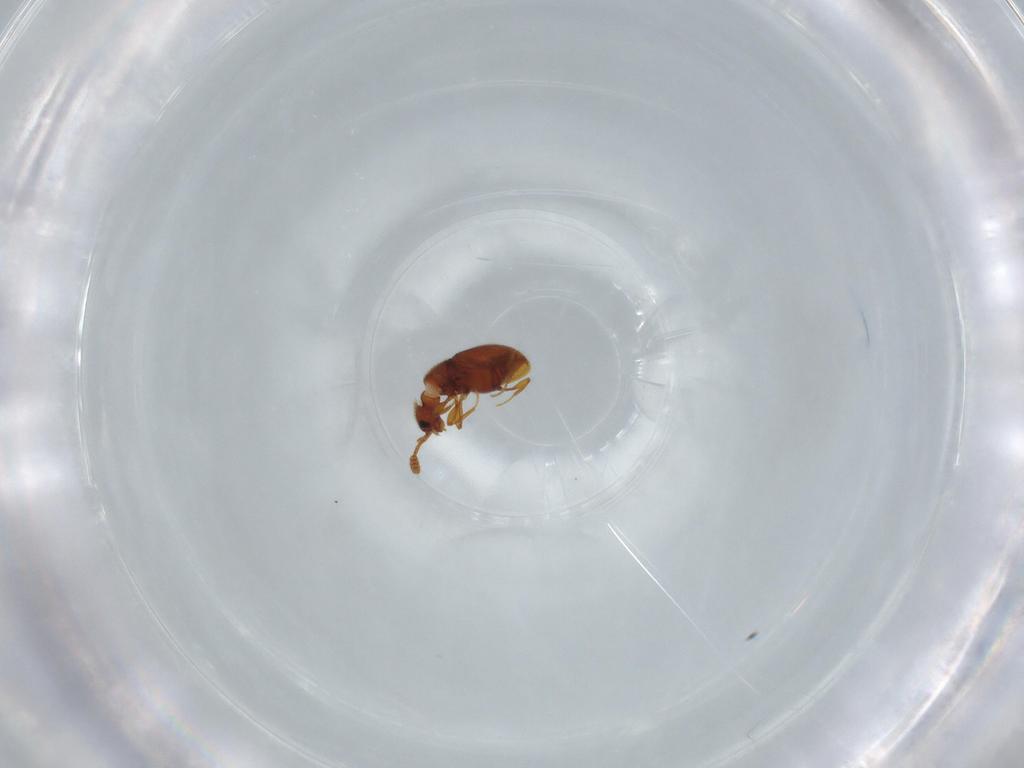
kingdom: Animalia
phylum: Arthropoda
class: Insecta
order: Coleoptera
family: Staphylinidae
